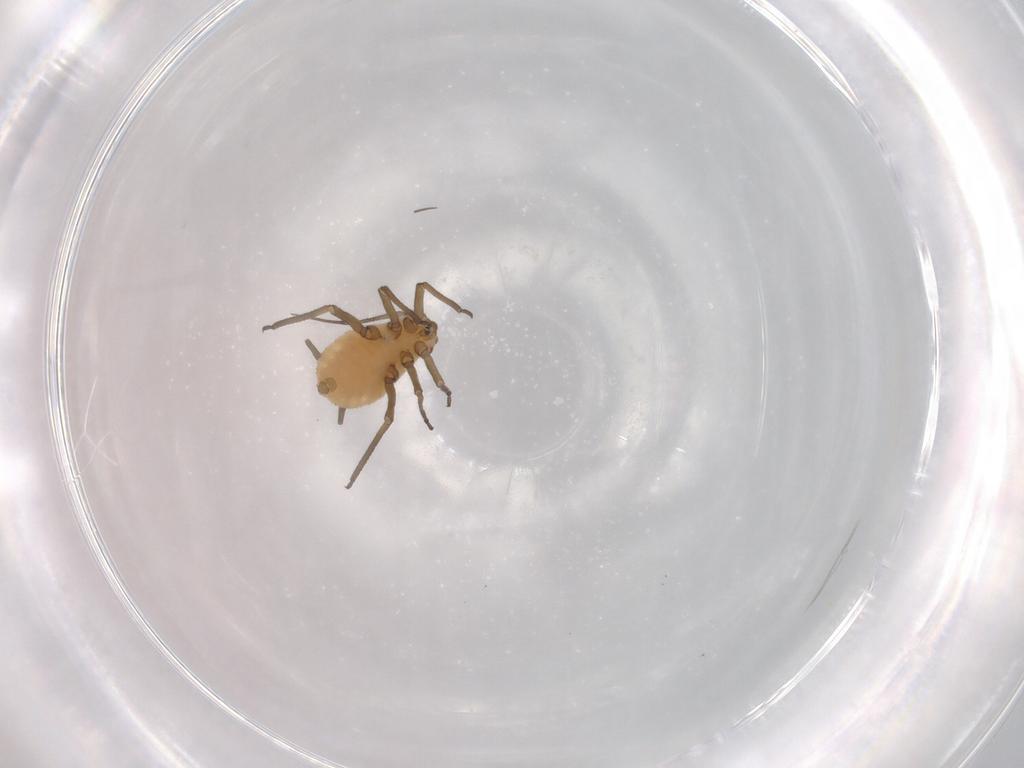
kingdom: Animalia
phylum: Arthropoda
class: Insecta
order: Hemiptera
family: Aphididae
